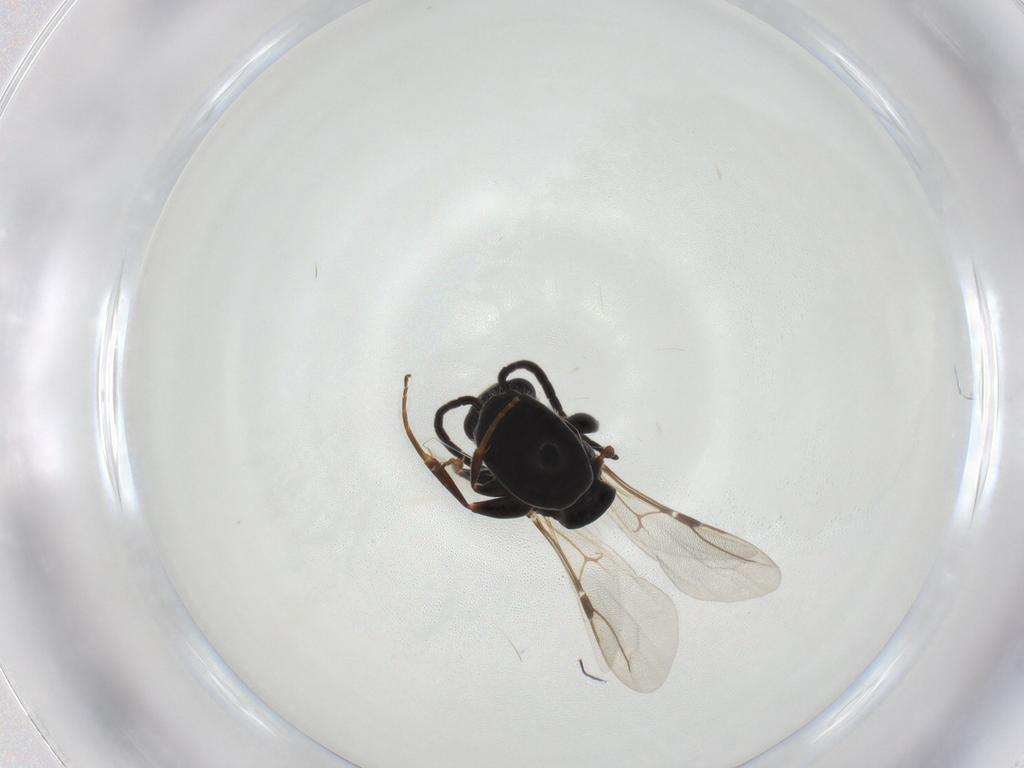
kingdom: Animalia
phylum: Arthropoda
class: Insecta
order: Hymenoptera
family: Bethylidae
